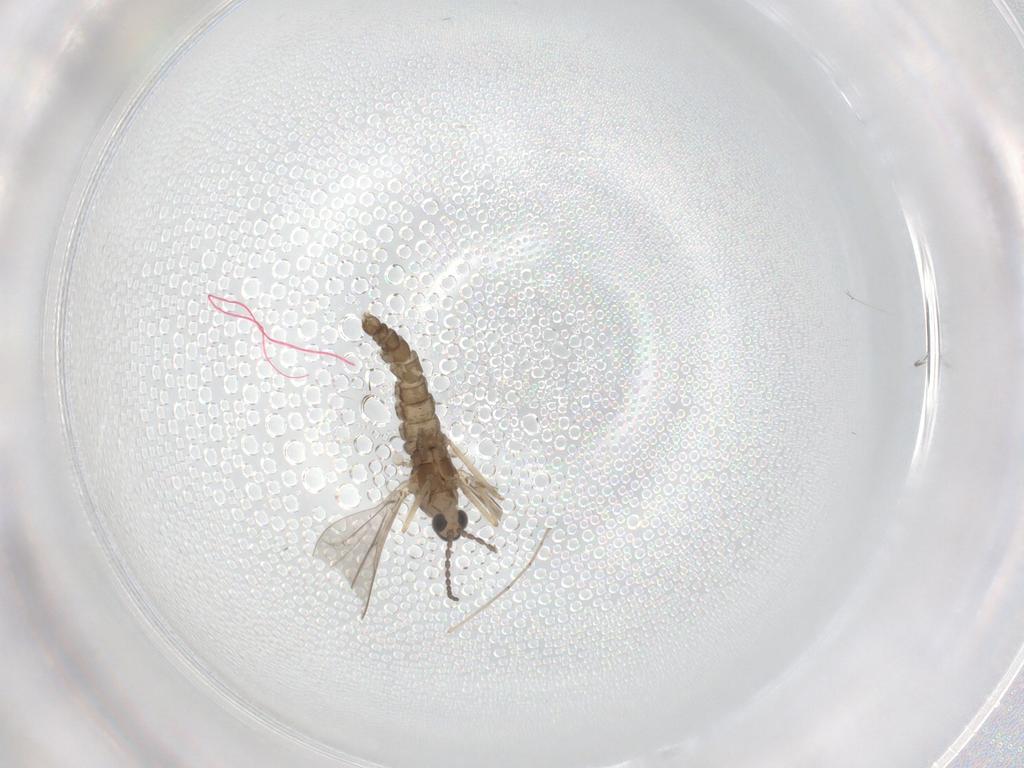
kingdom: Animalia
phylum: Arthropoda
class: Insecta
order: Diptera
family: Cecidomyiidae
